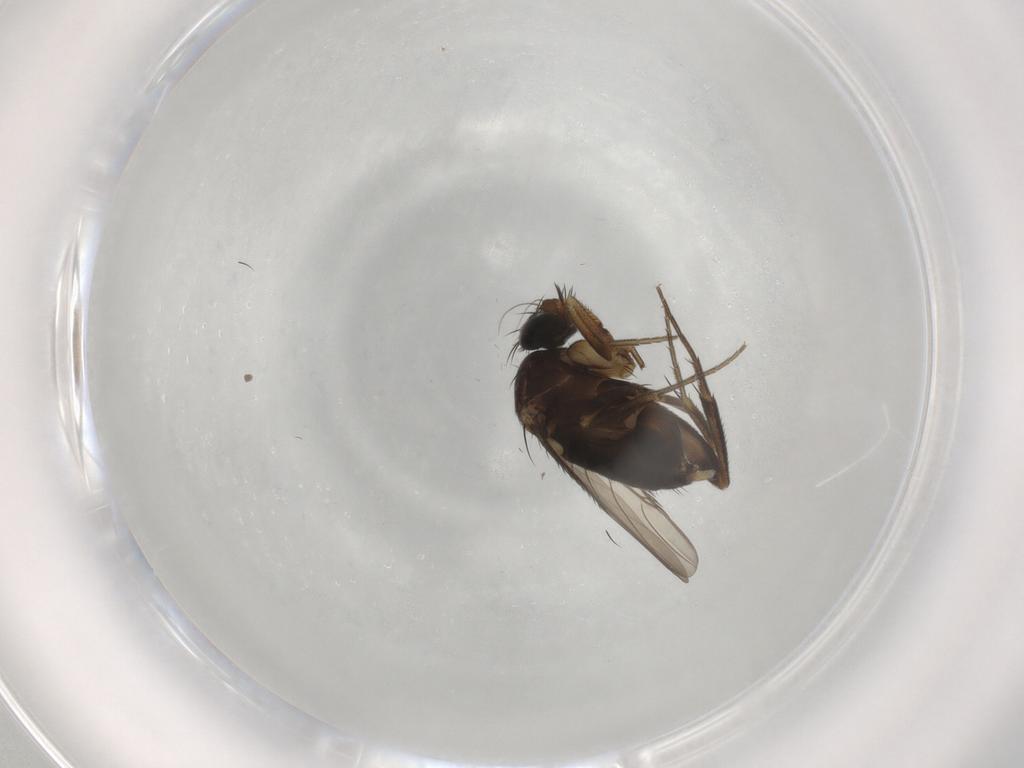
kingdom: Animalia
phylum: Arthropoda
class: Insecta
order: Diptera
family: Phoridae
